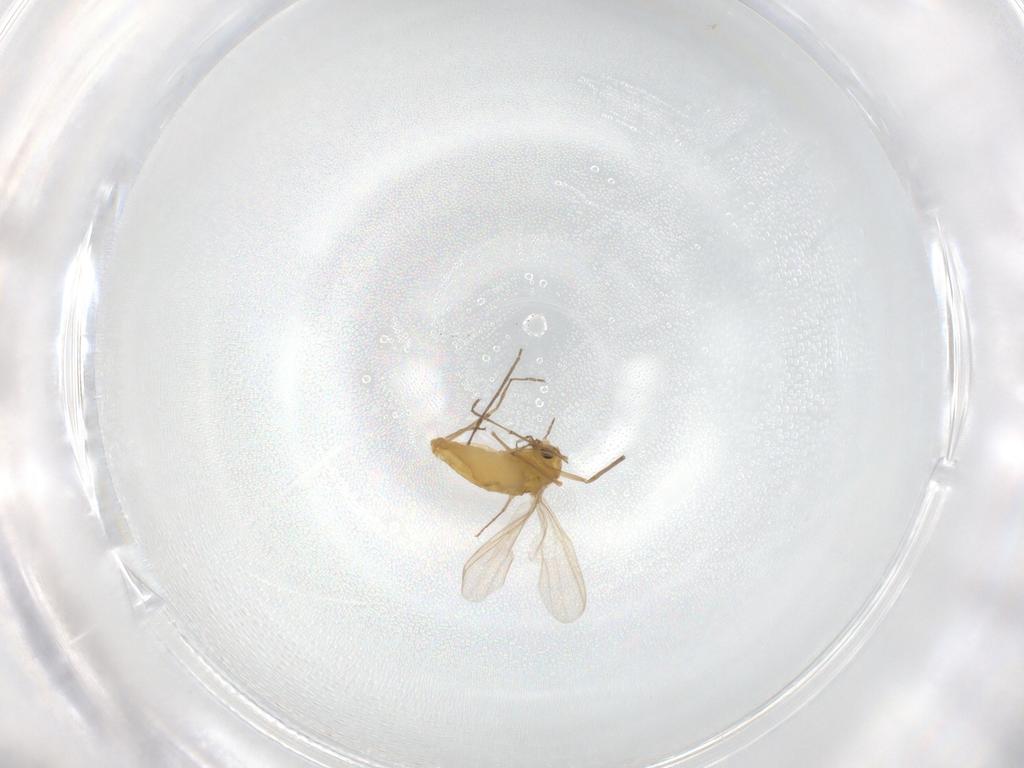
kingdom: Animalia
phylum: Arthropoda
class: Insecta
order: Diptera
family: Chironomidae
